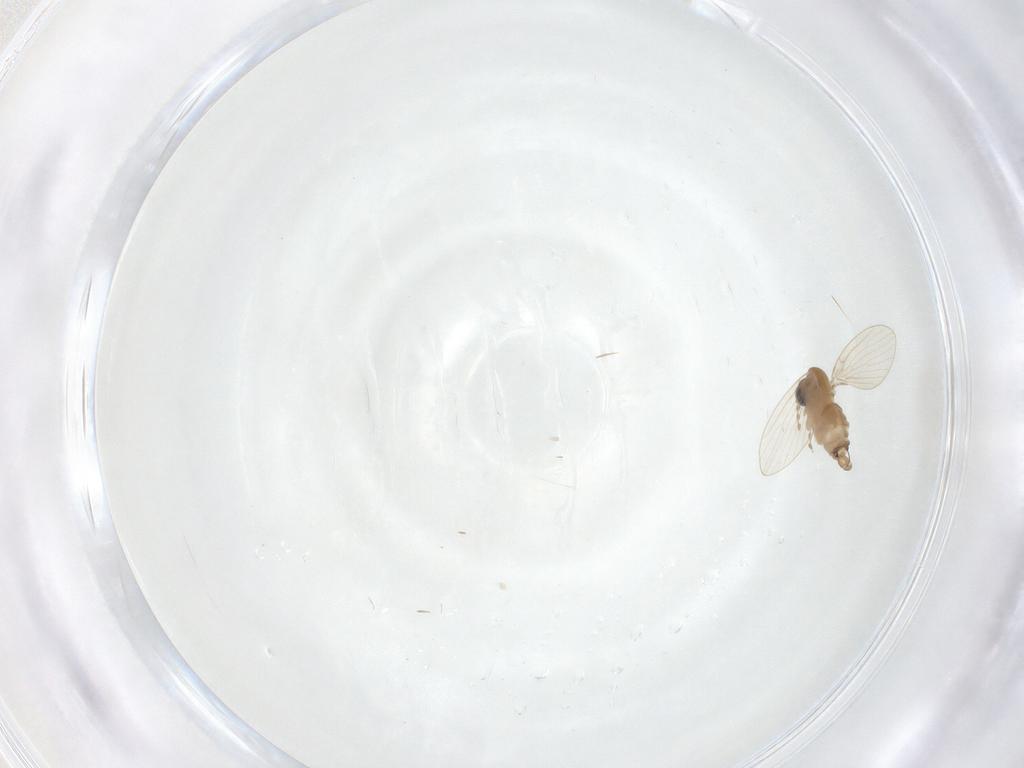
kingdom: Animalia
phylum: Arthropoda
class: Insecta
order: Diptera
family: Psychodidae
